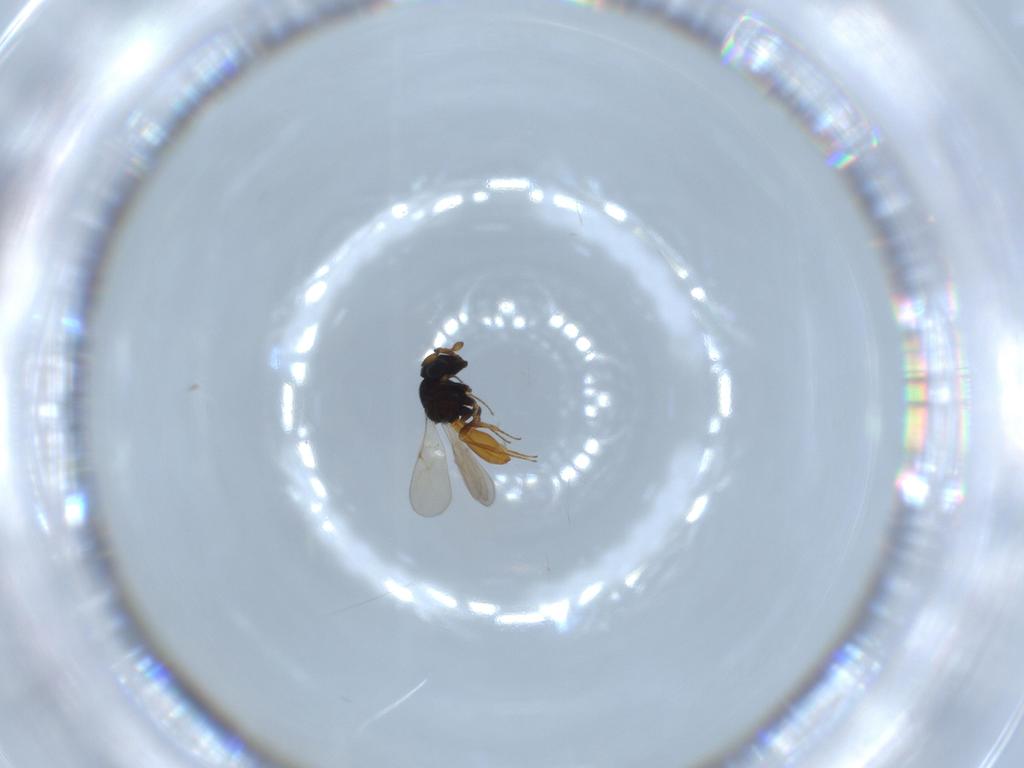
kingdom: Animalia
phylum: Arthropoda
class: Insecta
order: Hymenoptera
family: Scelionidae
